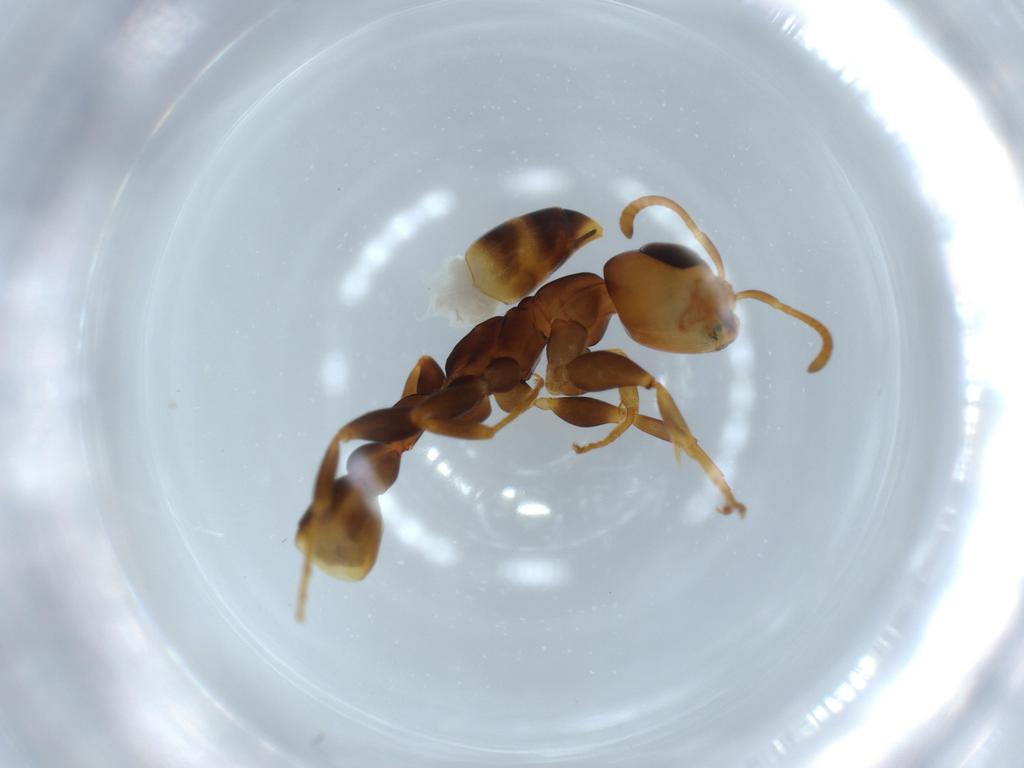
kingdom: Animalia
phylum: Arthropoda
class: Insecta
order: Hymenoptera
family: Formicidae
